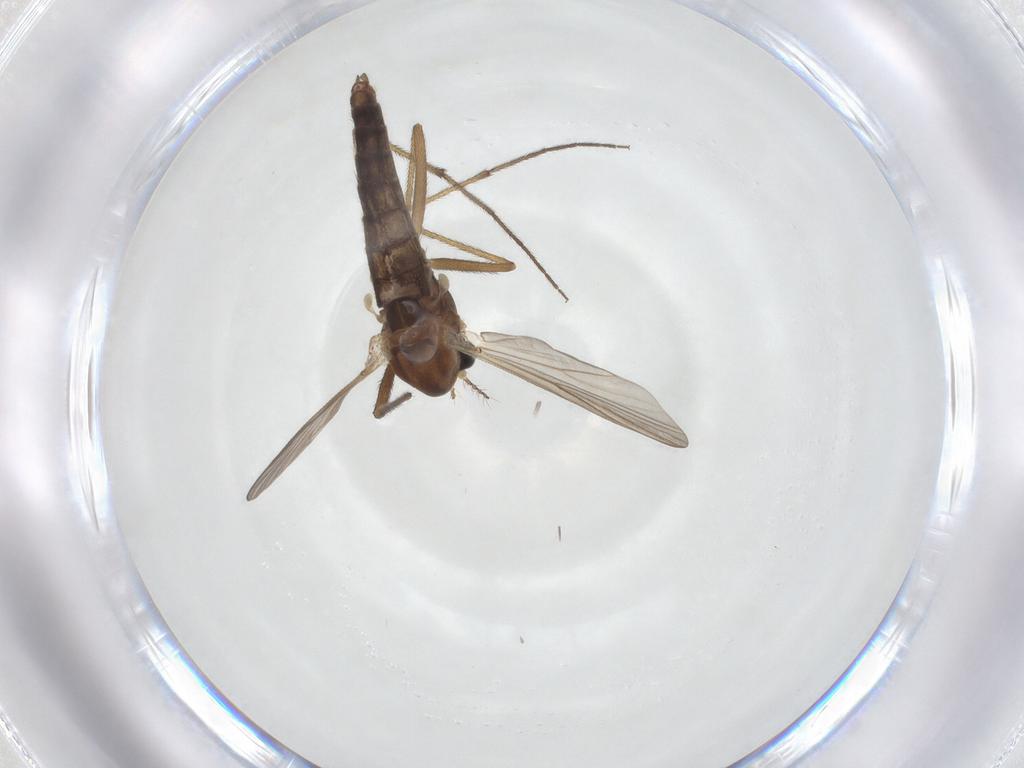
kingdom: Animalia
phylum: Arthropoda
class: Insecta
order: Diptera
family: Chironomidae
